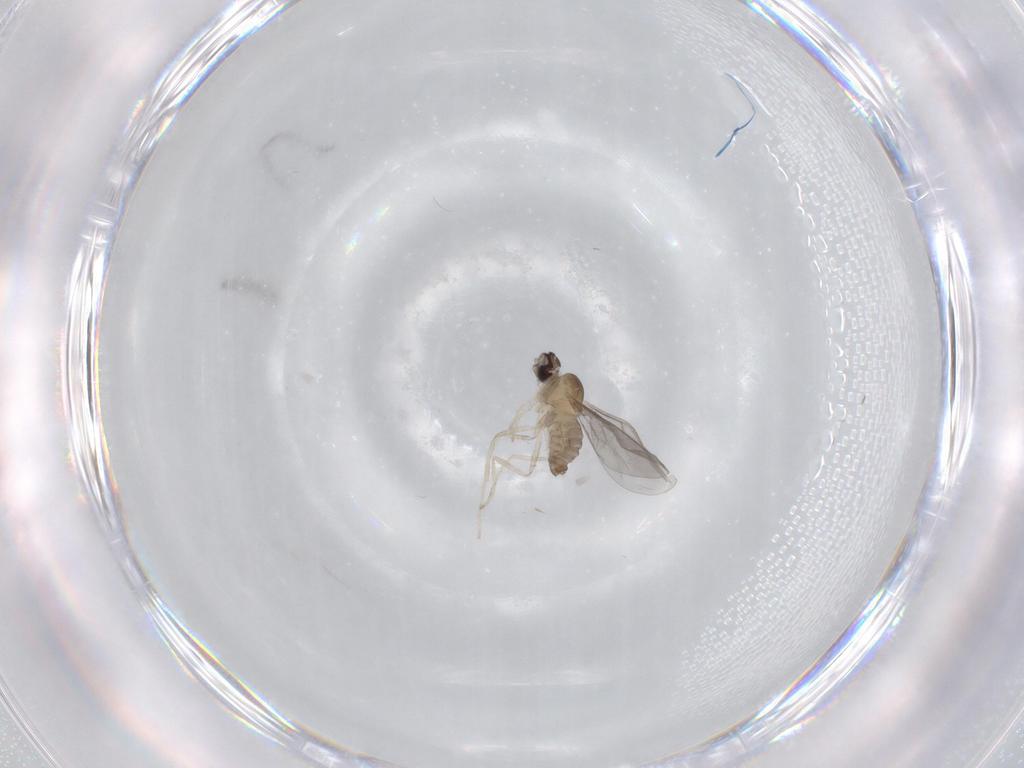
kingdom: Animalia
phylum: Arthropoda
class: Insecta
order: Diptera
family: Cecidomyiidae
